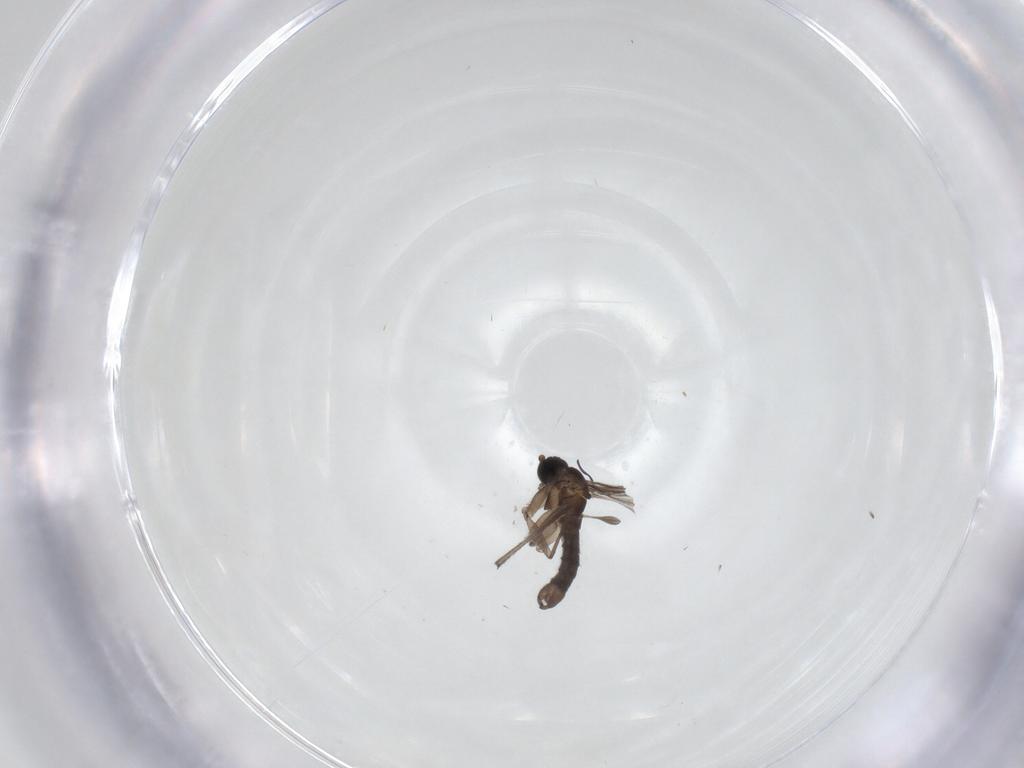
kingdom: Animalia
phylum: Arthropoda
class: Insecta
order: Diptera
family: Sciaridae
